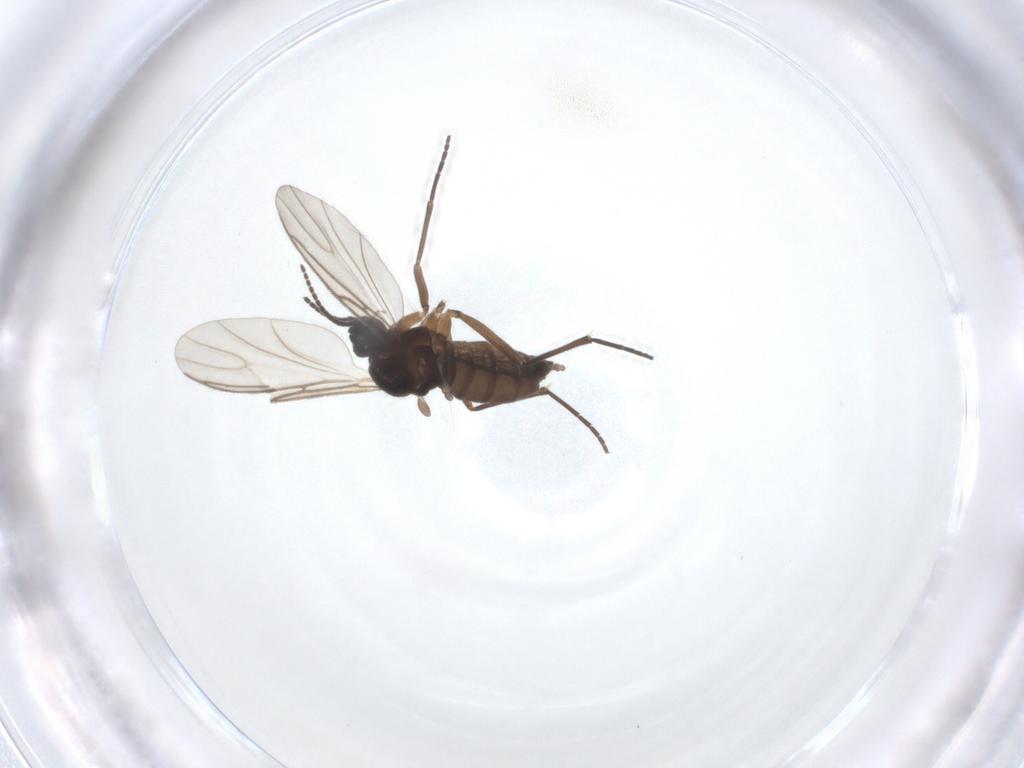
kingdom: Animalia
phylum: Arthropoda
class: Insecta
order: Diptera
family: Sciaridae
